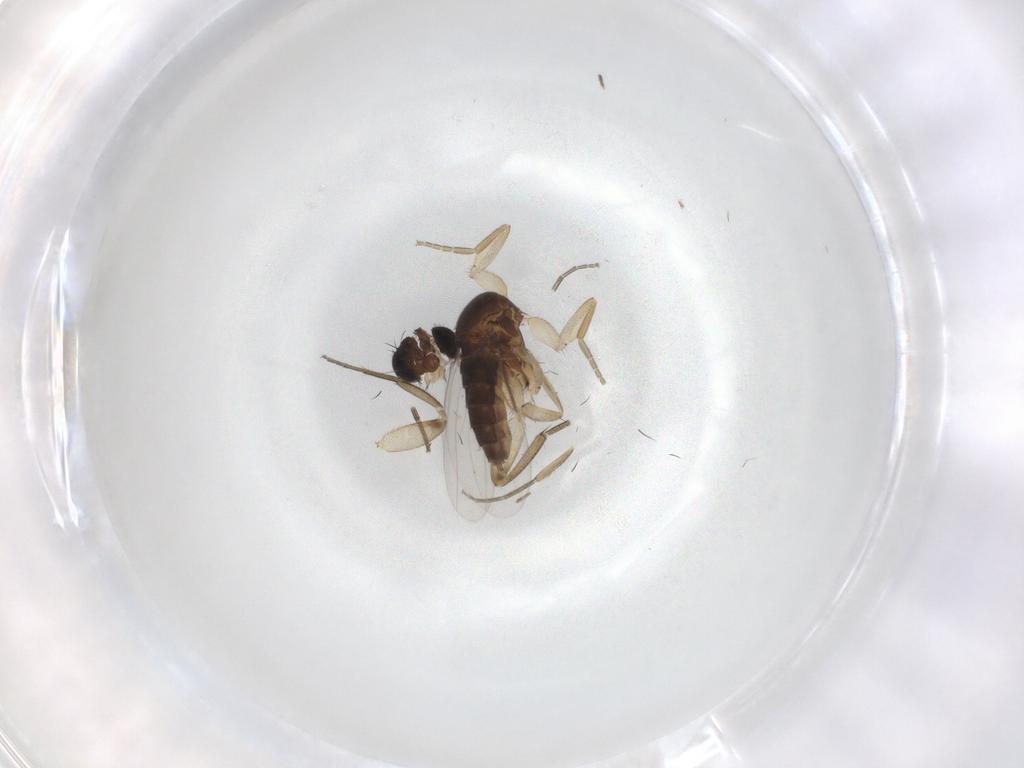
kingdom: Animalia
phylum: Arthropoda
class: Insecta
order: Diptera
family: Phoridae
